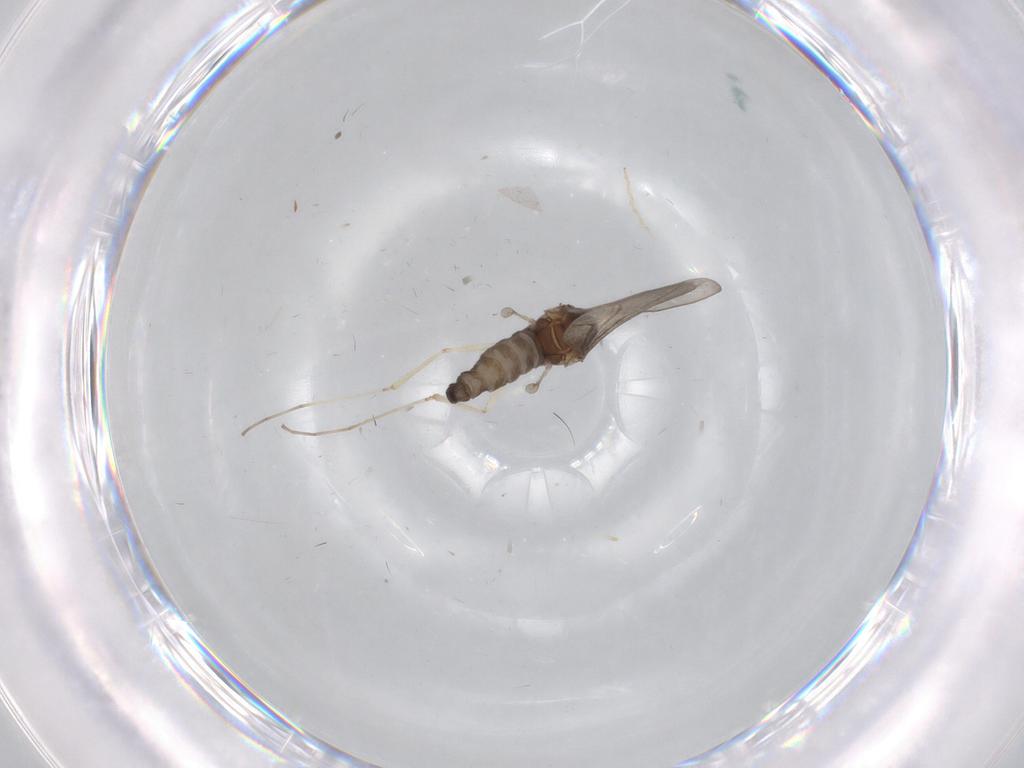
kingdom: Animalia
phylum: Arthropoda
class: Insecta
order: Diptera
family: Cecidomyiidae
